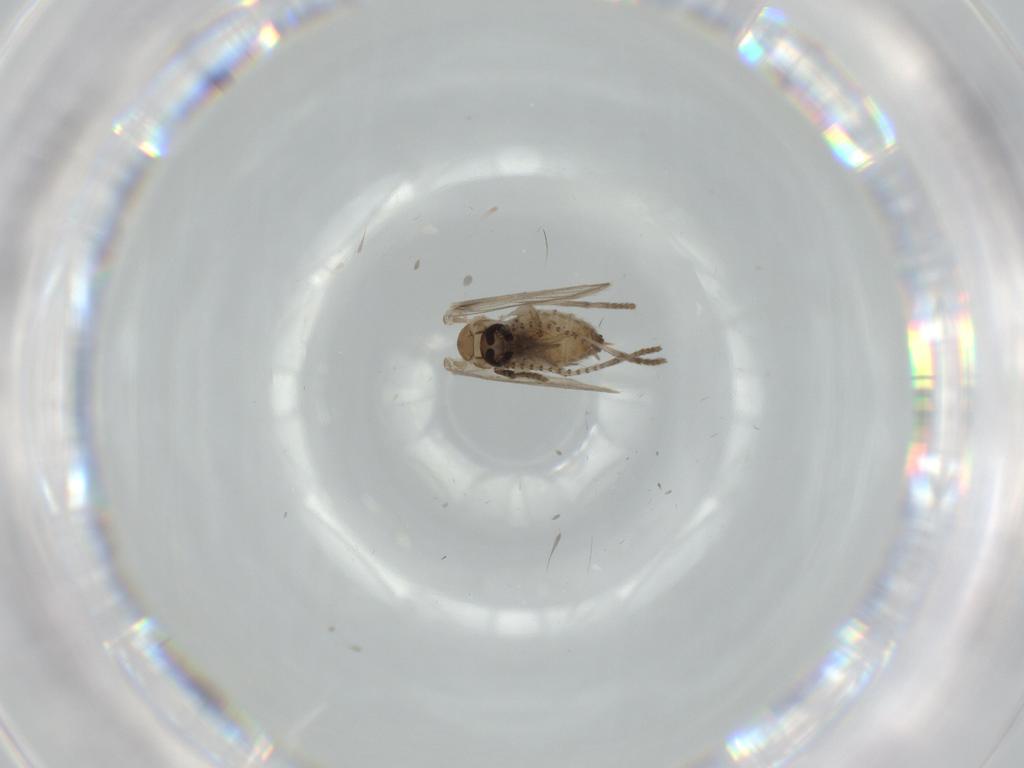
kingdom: Animalia
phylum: Arthropoda
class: Insecta
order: Diptera
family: Psychodidae
